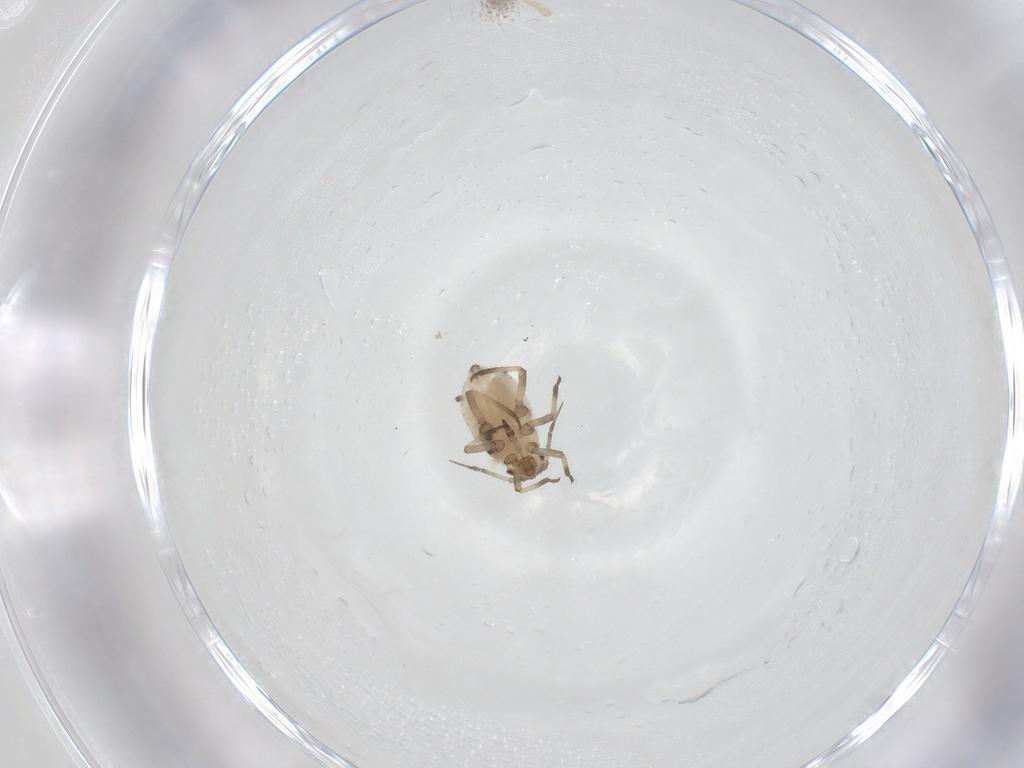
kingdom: Animalia
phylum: Arthropoda
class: Insecta
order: Hemiptera
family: Aphididae
